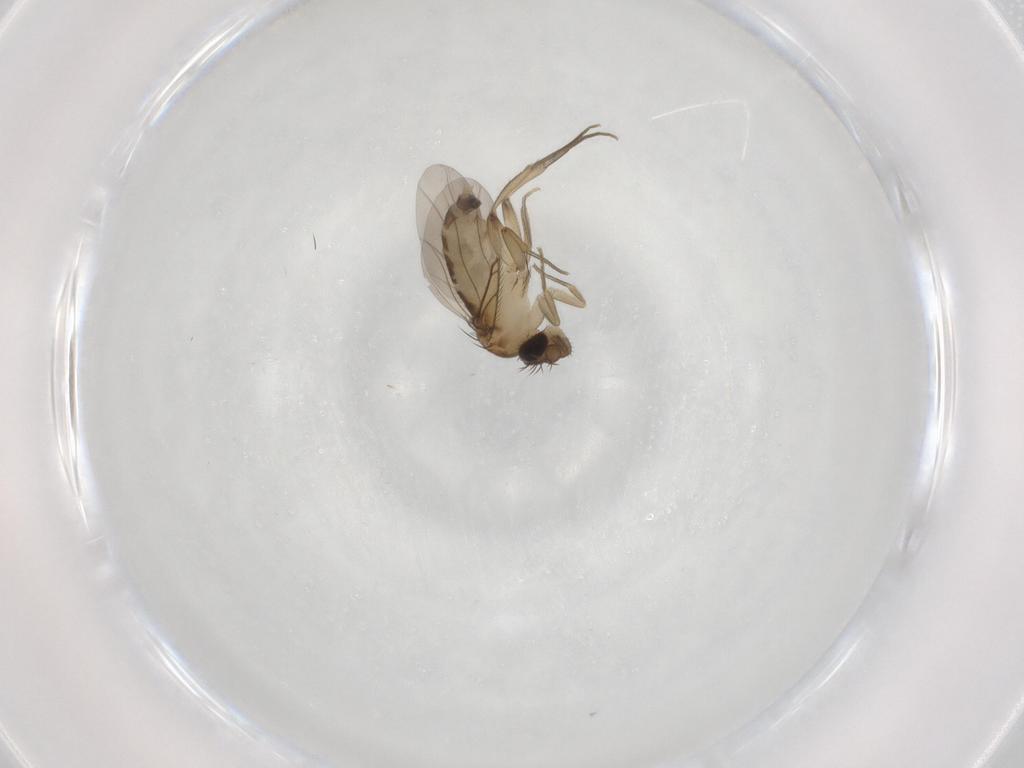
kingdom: Animalia
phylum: Arthropoda
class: Insecta
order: Diptera
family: Phoridae
